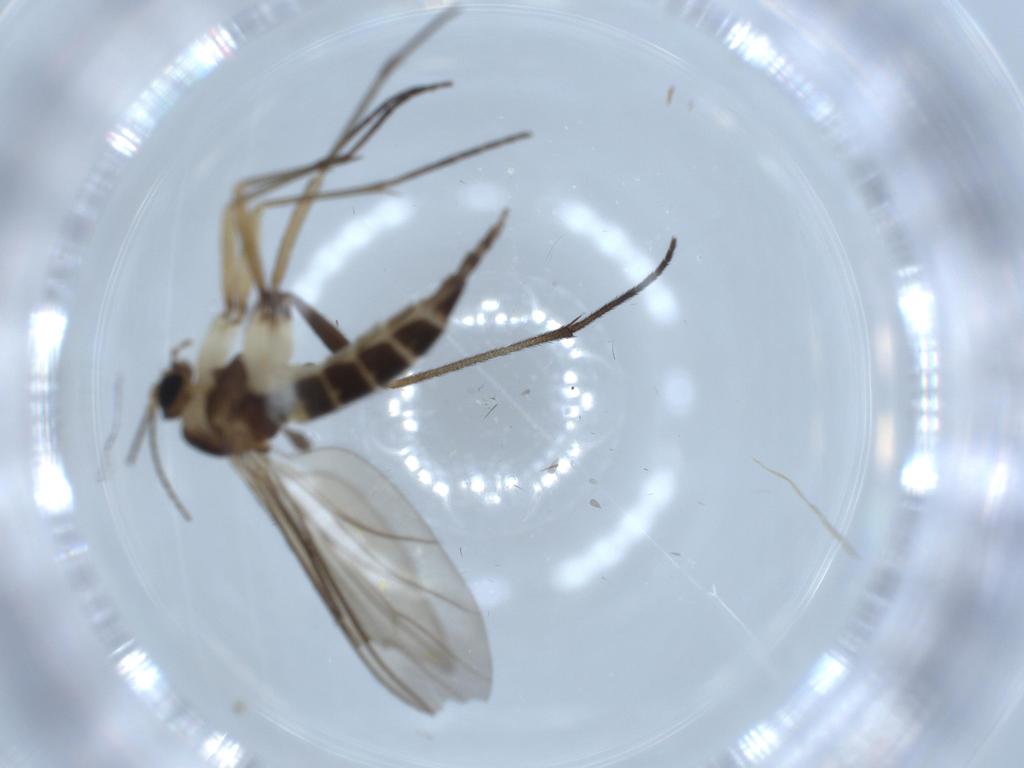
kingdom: Animalia
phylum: Arthropoda
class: Insecta
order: Diptera
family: Sciaridae
